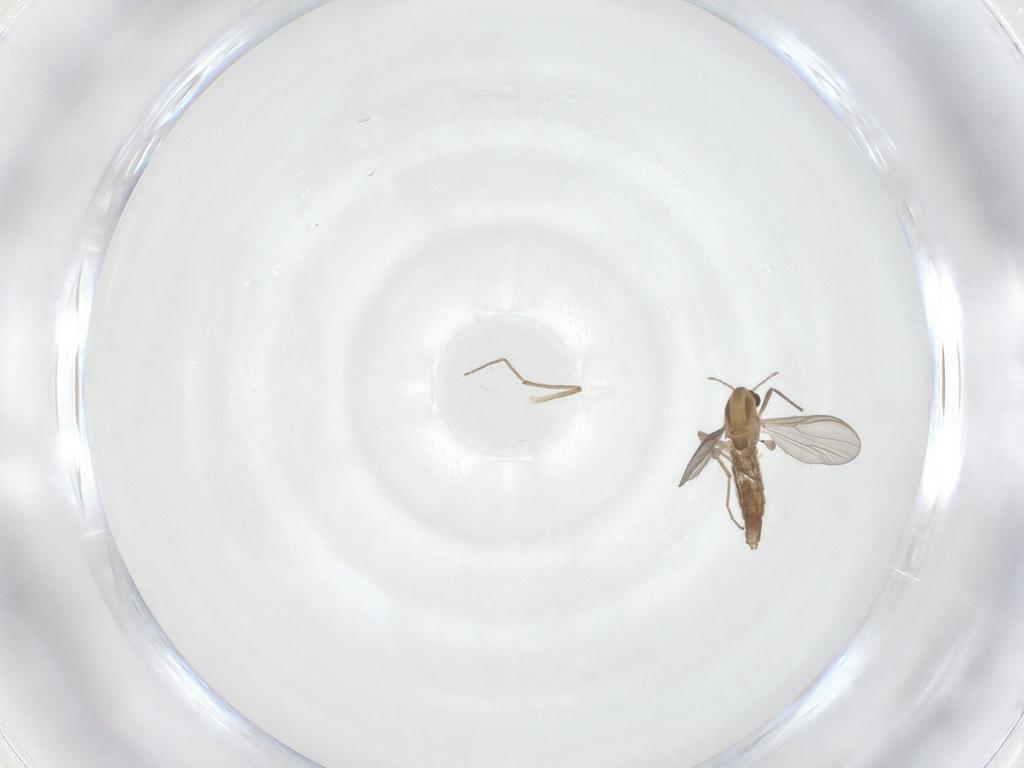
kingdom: Animalia
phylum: Arthropoda
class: Insecta
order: Diptera
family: Chironomidae
